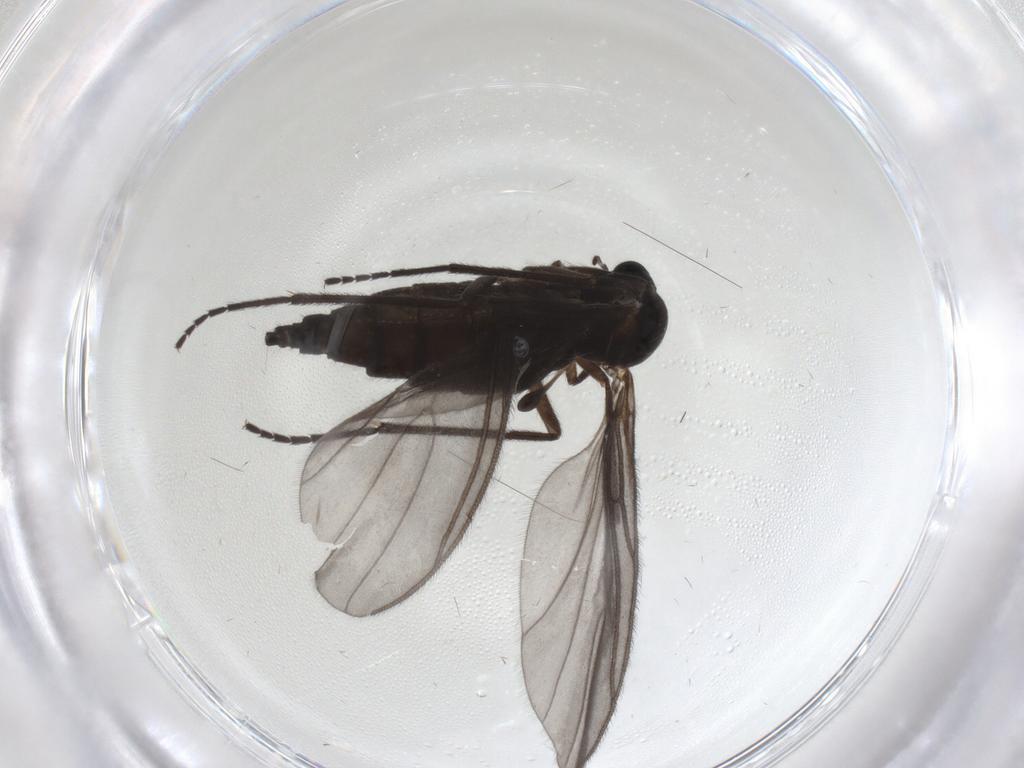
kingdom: Animalia
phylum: Arthropoda
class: Insecta
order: Diptera
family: Sciaridae
